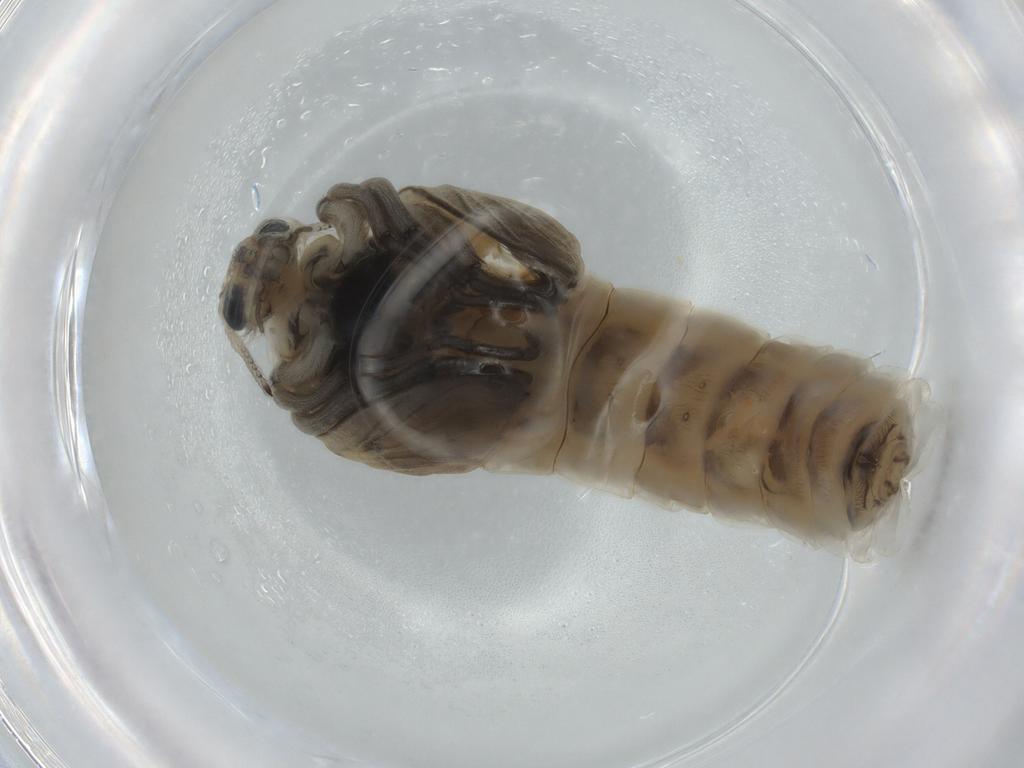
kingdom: Animalia
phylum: Arthropoda
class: Insecta
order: Diptera
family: Chironomidae
